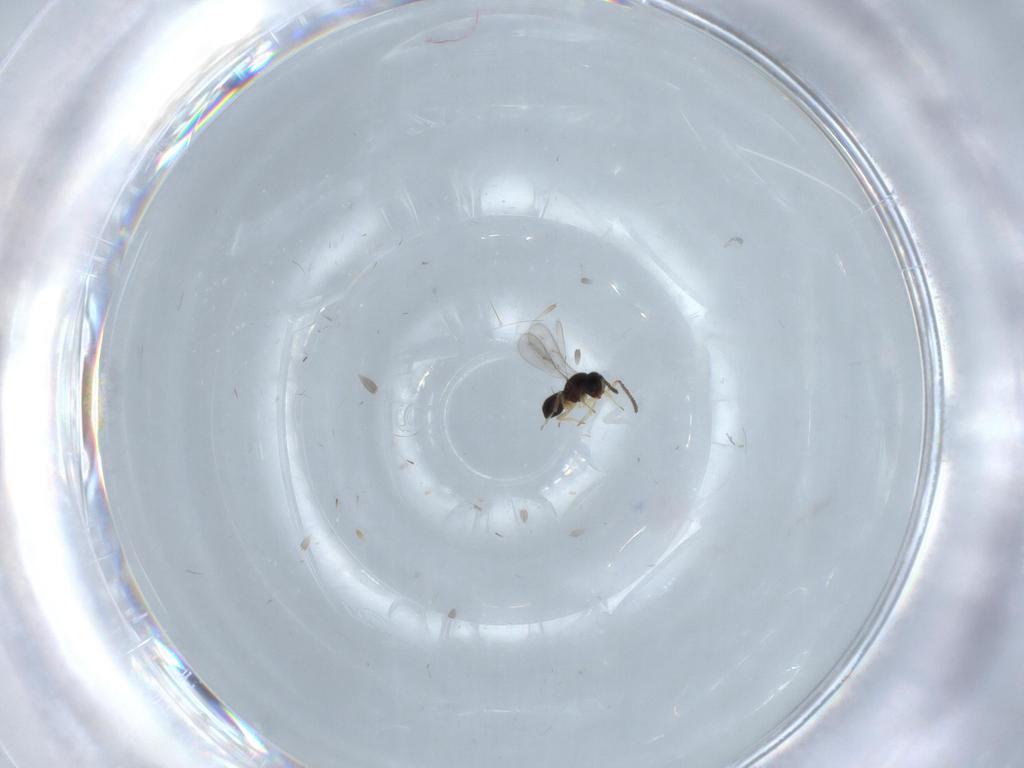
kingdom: Animalia
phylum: Arthropoda
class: Insecta
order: Hymenoptera
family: Scelionidae
